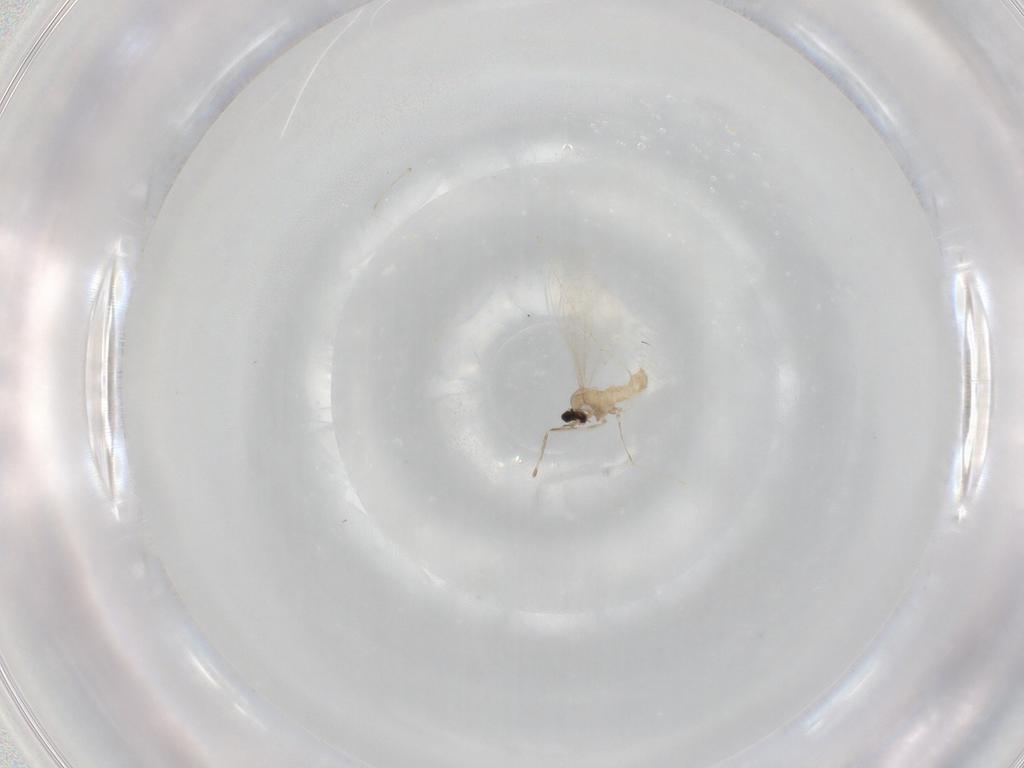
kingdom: Animalia
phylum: Arthropoda
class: Insecta
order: Diptera
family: Cecidomyiidae
